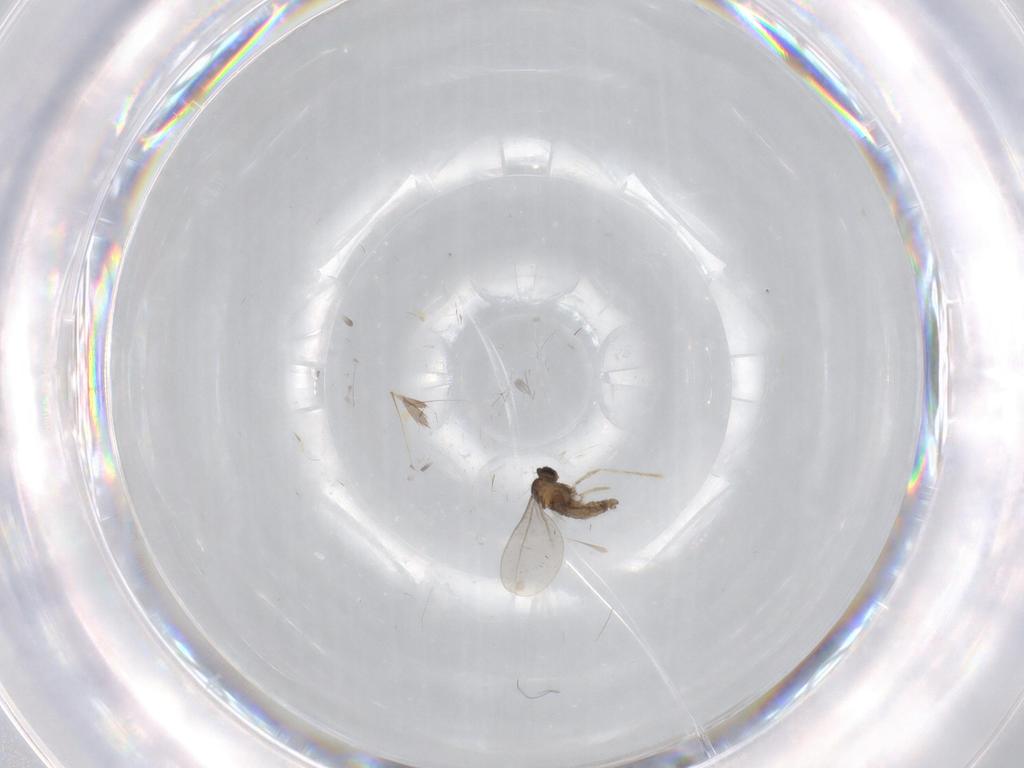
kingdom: Animalia
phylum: Arthropoda
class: Insecta
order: Diptera
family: Cecidomyiidae
